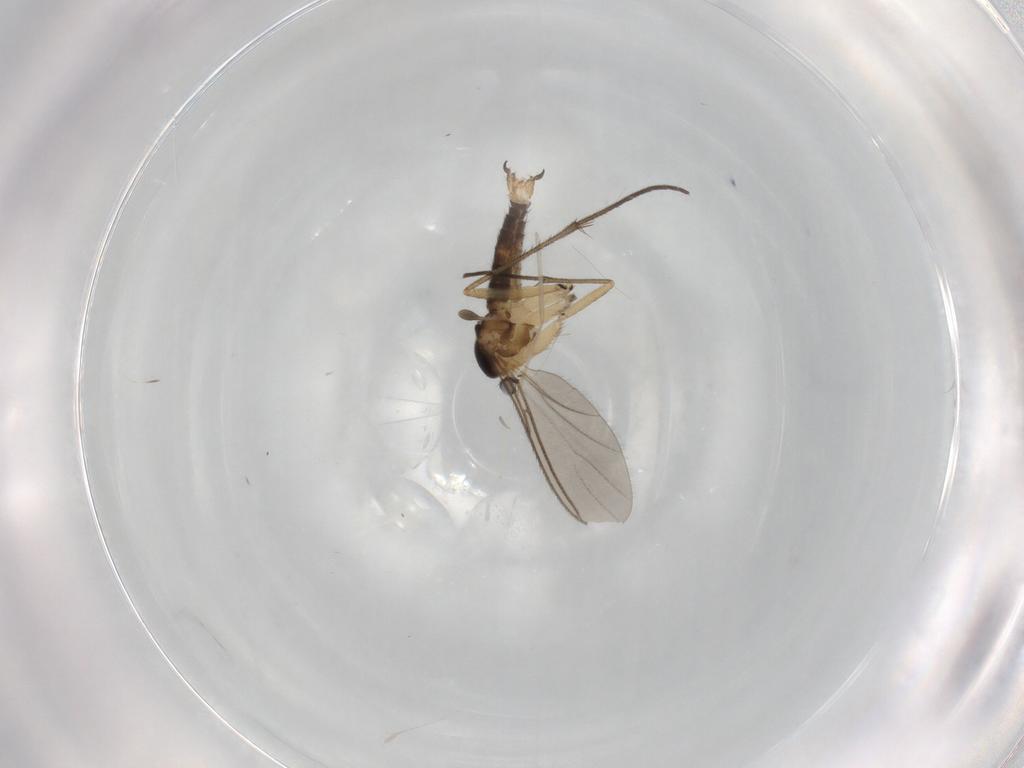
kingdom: Animalia
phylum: Arthropoda
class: Insecta
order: Diptera
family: Cecidomyiidae
